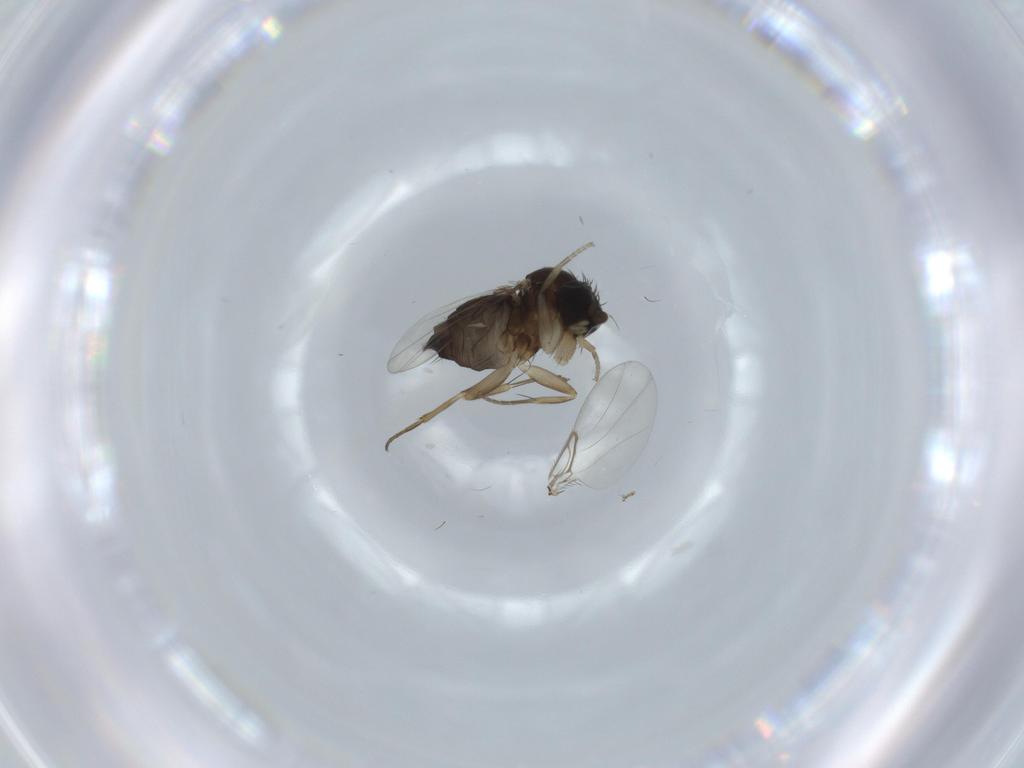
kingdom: Animalia
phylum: Arthropoda
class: Insecta
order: Diptera
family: Phoridae
